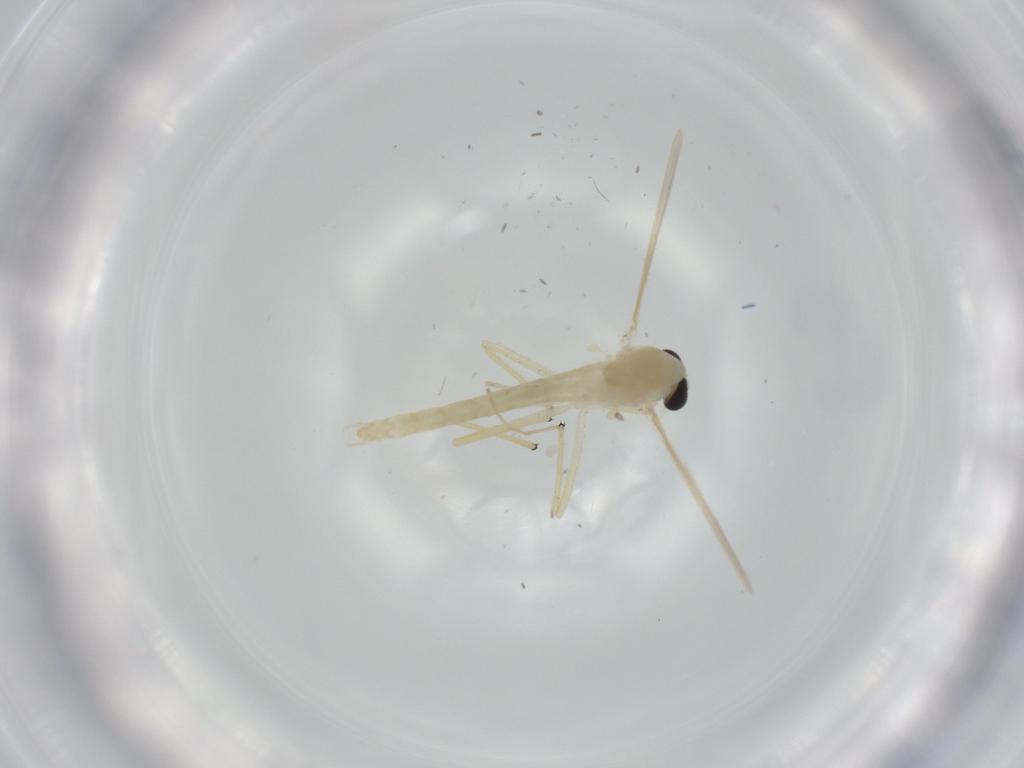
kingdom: Animalia
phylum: Arthropoda
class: Insecta
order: Diptera
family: Chironomidae
